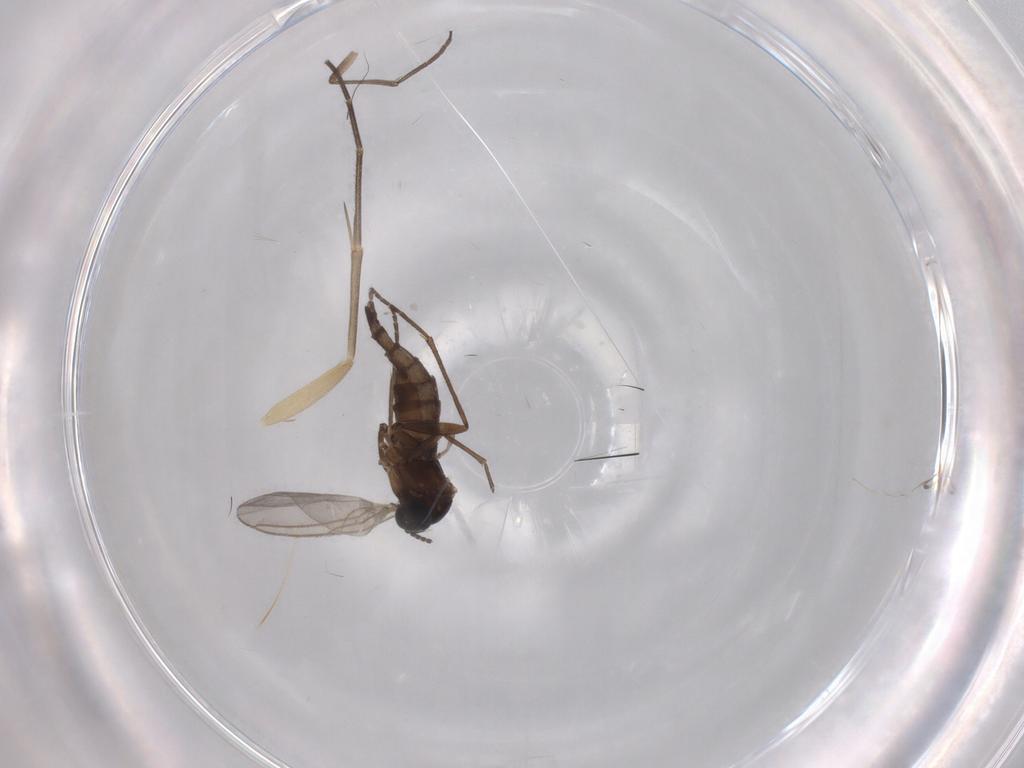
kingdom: Animalia
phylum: Arthropoda
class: Insecta
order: Diptera
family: Sciaridae
